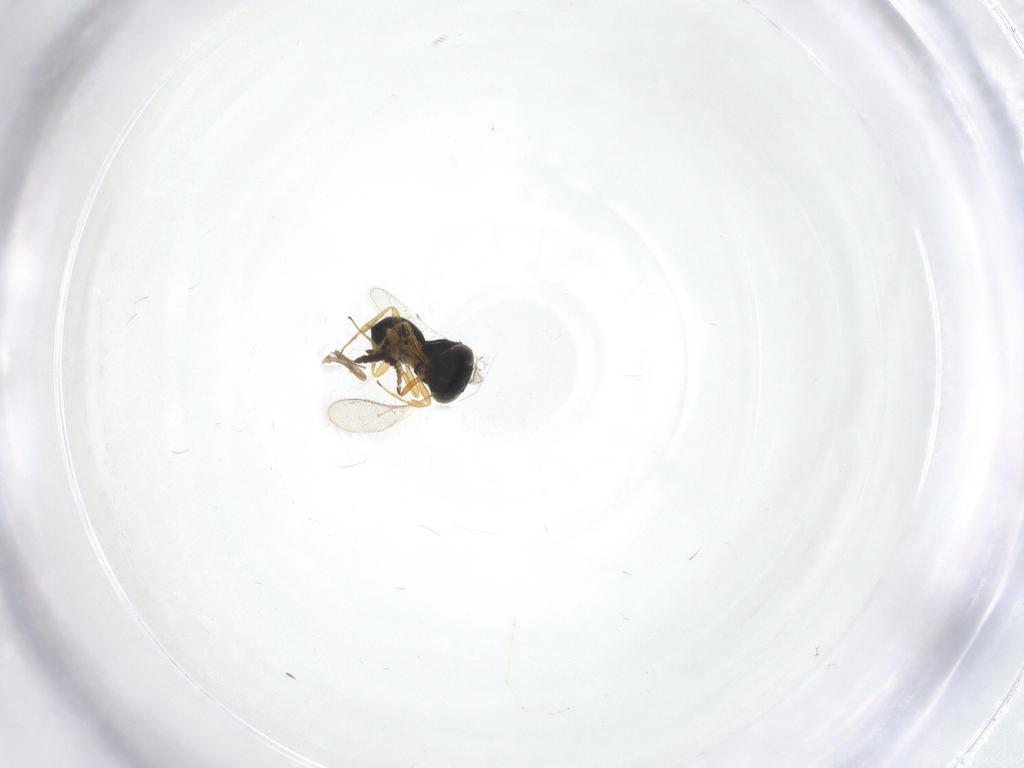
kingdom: Animalia
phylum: Arthropoda
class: Insecta
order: Hymenoptera
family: Scelionidae
